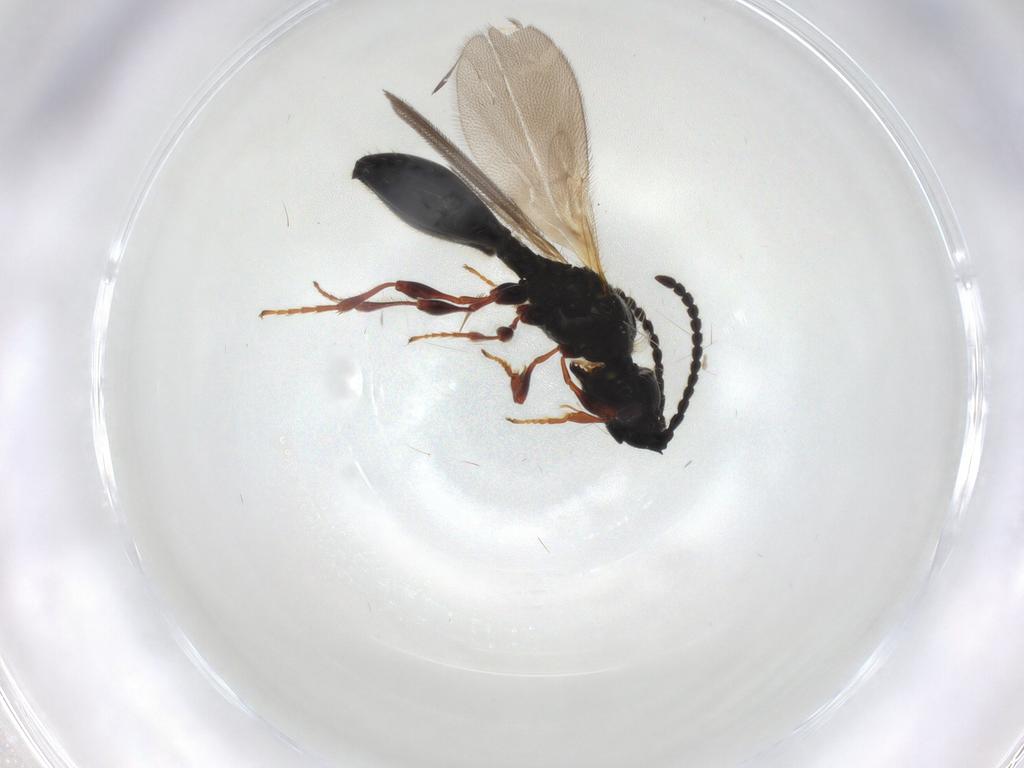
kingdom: Animalia
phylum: Arthropoda
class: Insecta
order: Hymenoptera
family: Diapriidae
